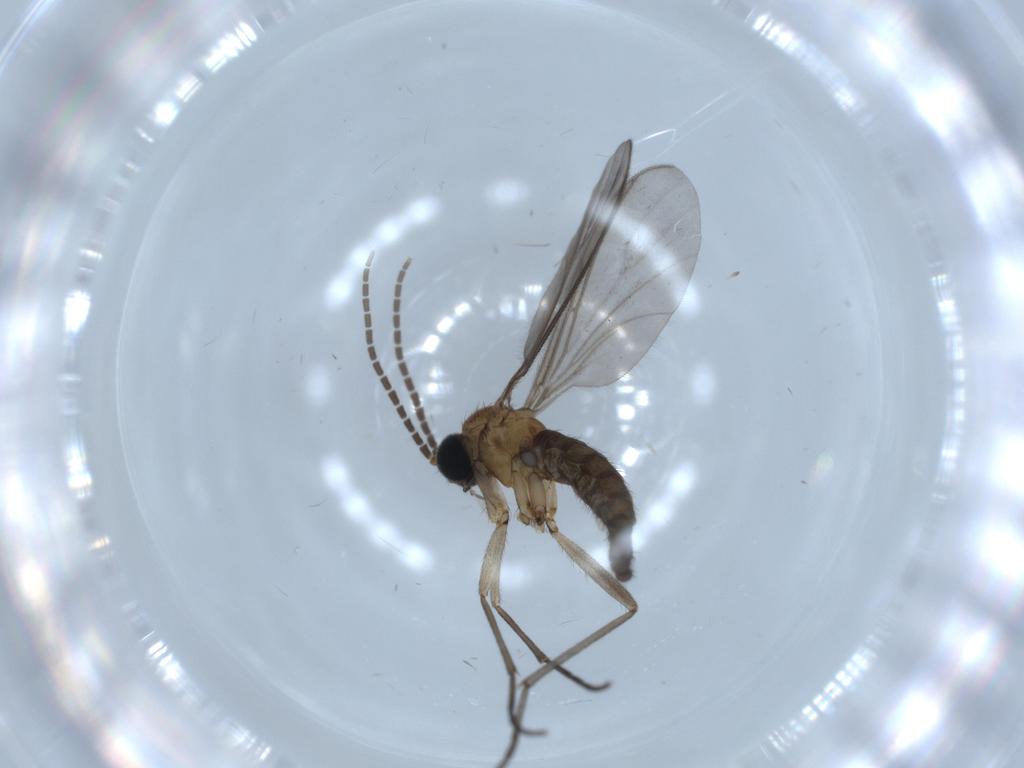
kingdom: Animalia
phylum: Arthropoda
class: Insecta
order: Diptera
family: Sciaridae
